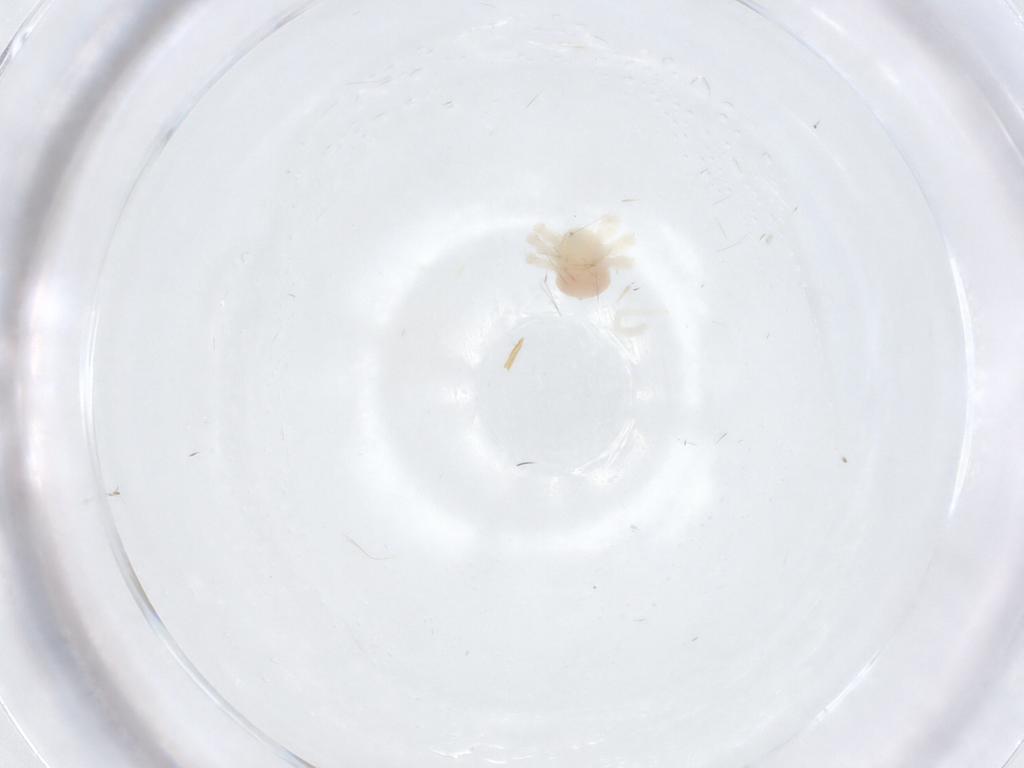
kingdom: Animalia
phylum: Arthropoda
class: Arachnida
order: Trombidiformes
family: Anystidae
